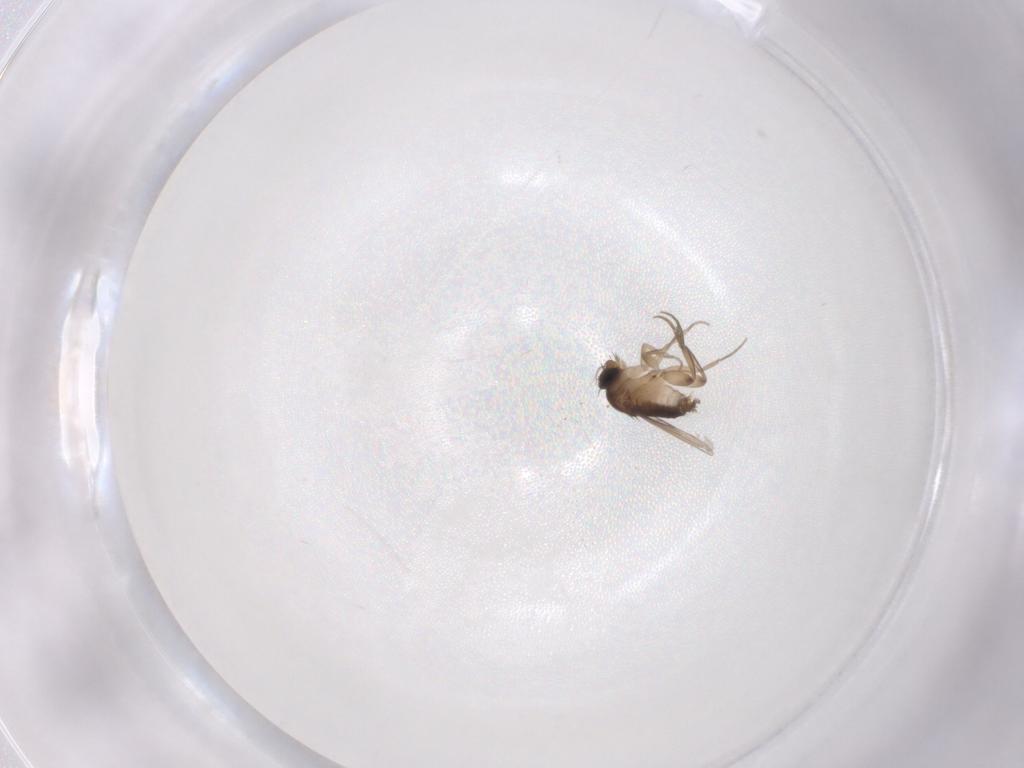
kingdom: Animalia
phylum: Arthropoda
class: Insecta
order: Diptera
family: Phoridae
